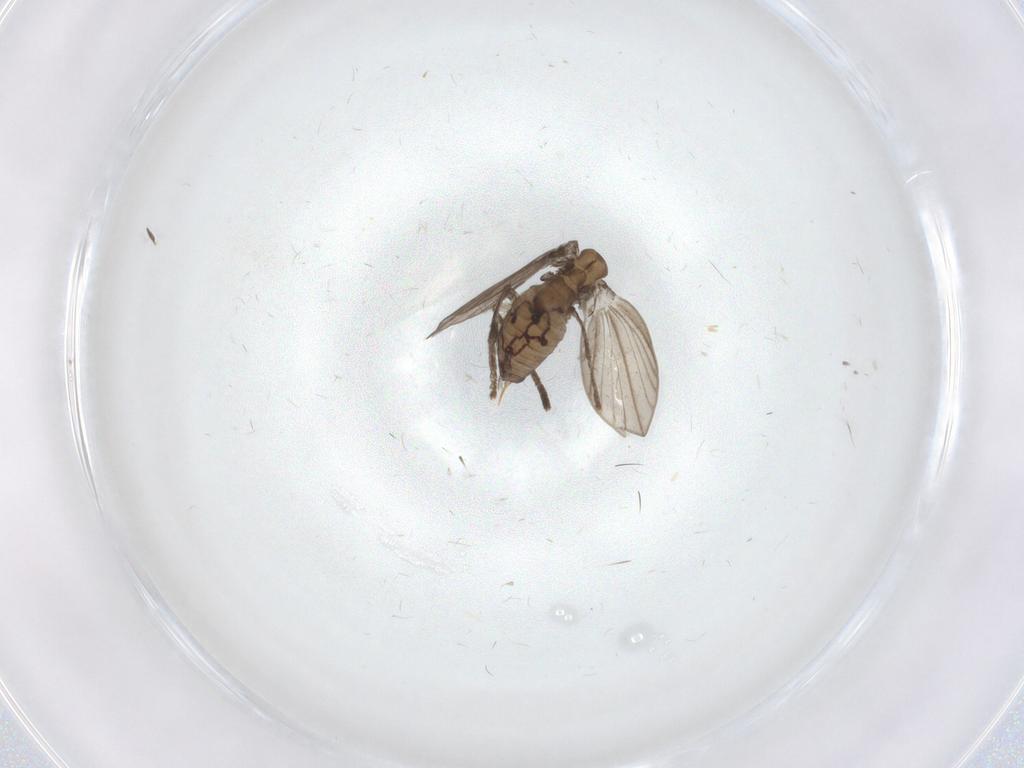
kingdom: Animalia
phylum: Arthropoda
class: Insecta
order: Diptera
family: Psychodidae
